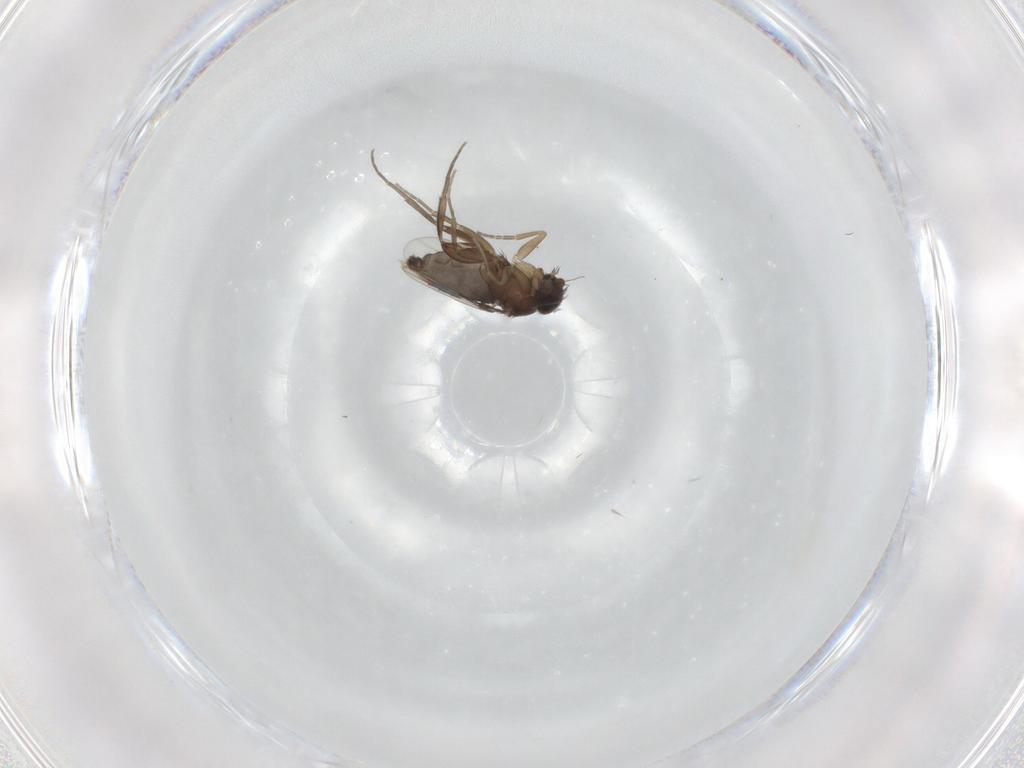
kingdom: Animalia
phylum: Arthropoda
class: Insecta
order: Diptera
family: Phoridae
